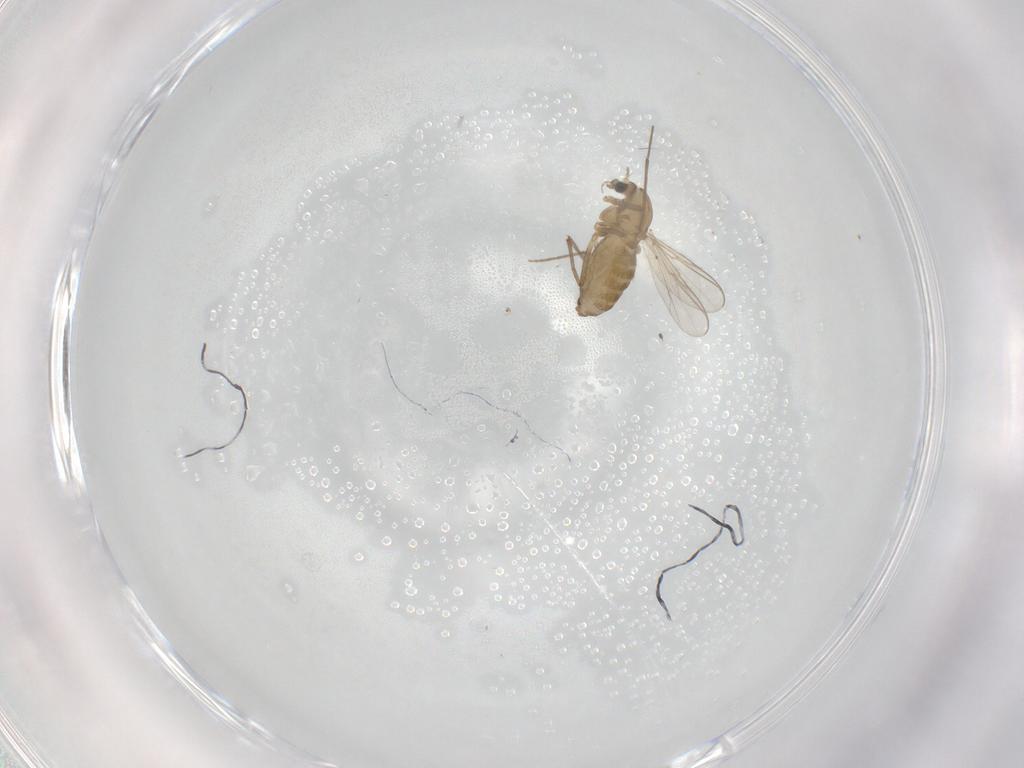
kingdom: Animalia
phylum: Arthropoda
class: Insecta
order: Diptera
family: Chironomidae
